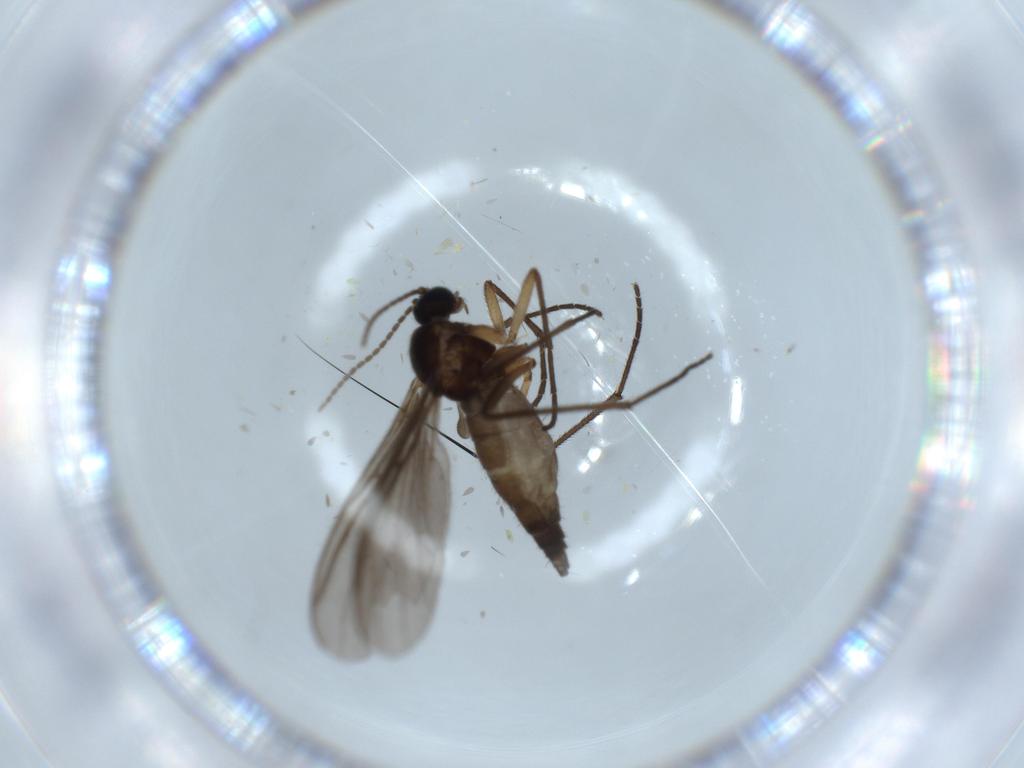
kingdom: Animalia
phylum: Arthropoda
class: Insecta
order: Diptera
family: Sciaridae
